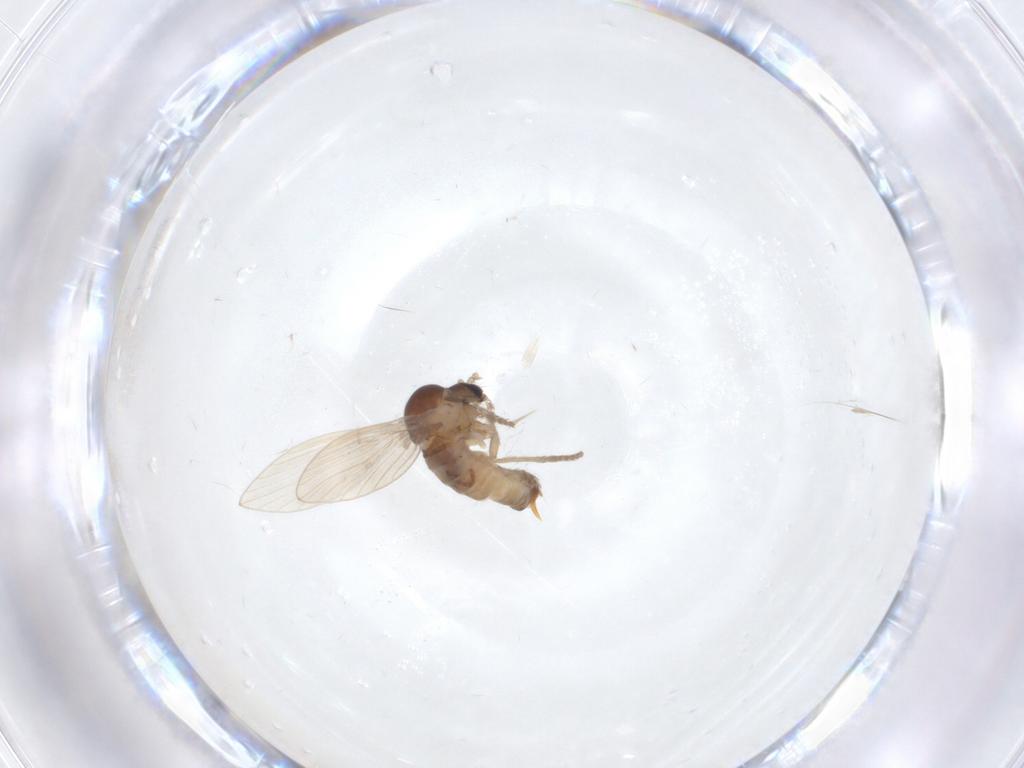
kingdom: Animalia
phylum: Arthropoda
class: Insecta
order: Diptera
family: Psychodidae
